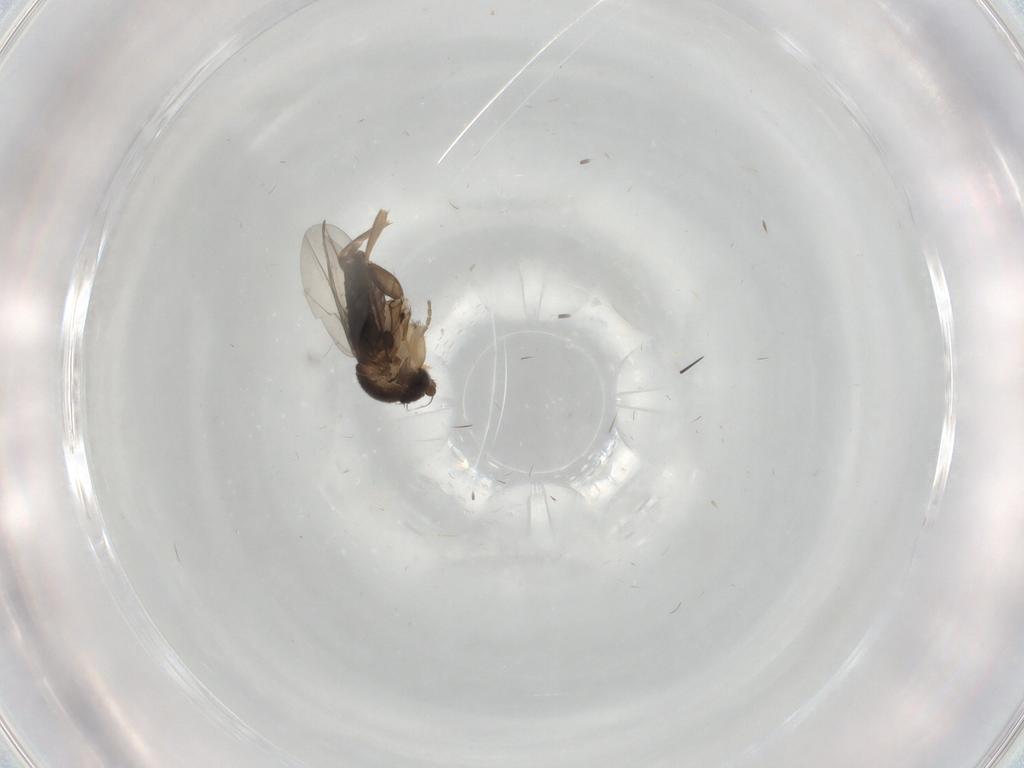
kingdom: Animalia
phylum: Arthropoda
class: Insecta
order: Diptera
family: Phoridae
